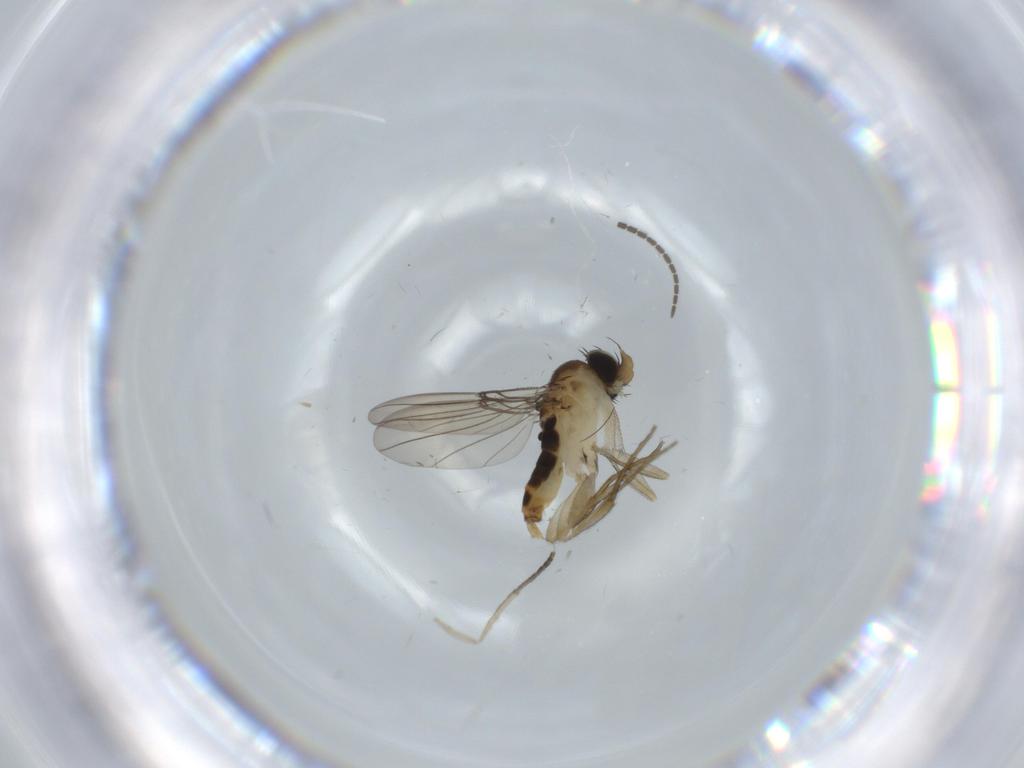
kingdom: Animalia
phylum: Arthropoda
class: Insecta
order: Diptera
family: Phoridae
